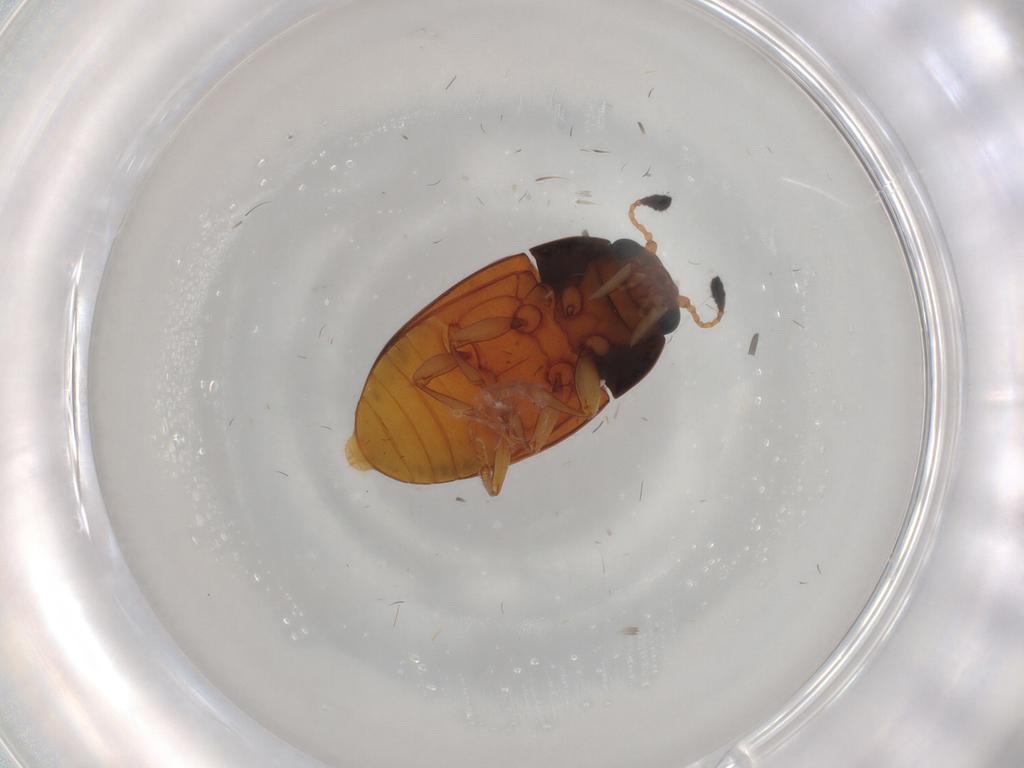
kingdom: Animalia
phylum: Arthropoda
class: Insecta
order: Coleoptera
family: Erotylidae
